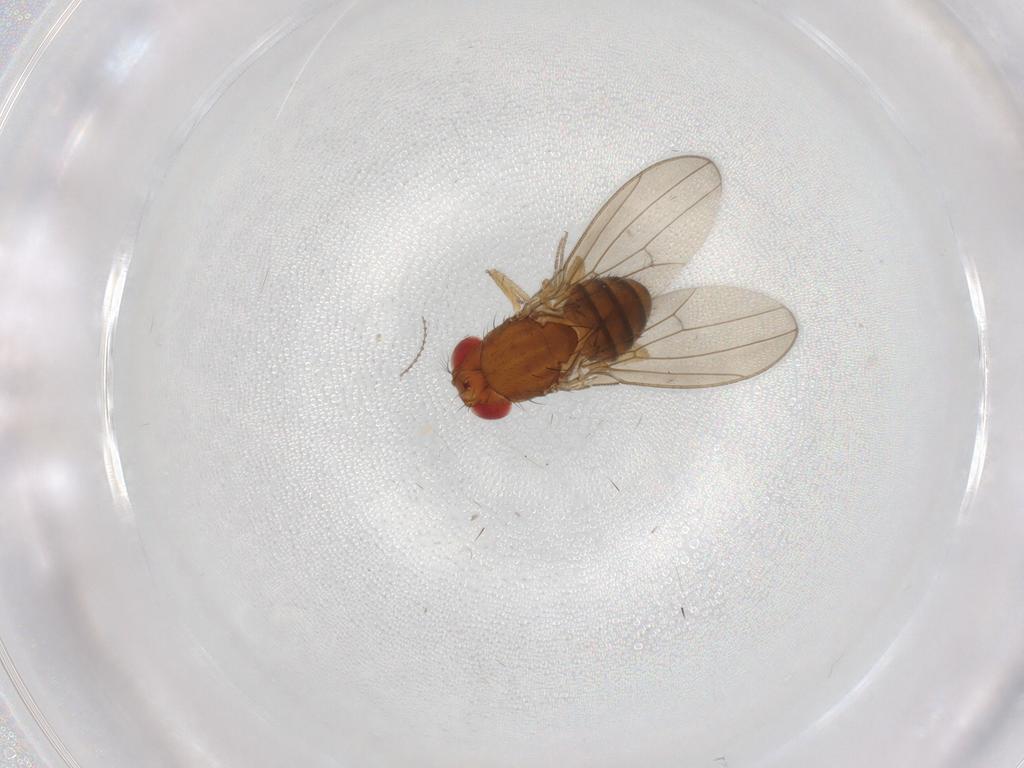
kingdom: Animalia
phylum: Arthropoda
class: Insecta
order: Diptera
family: Drosophilidae
